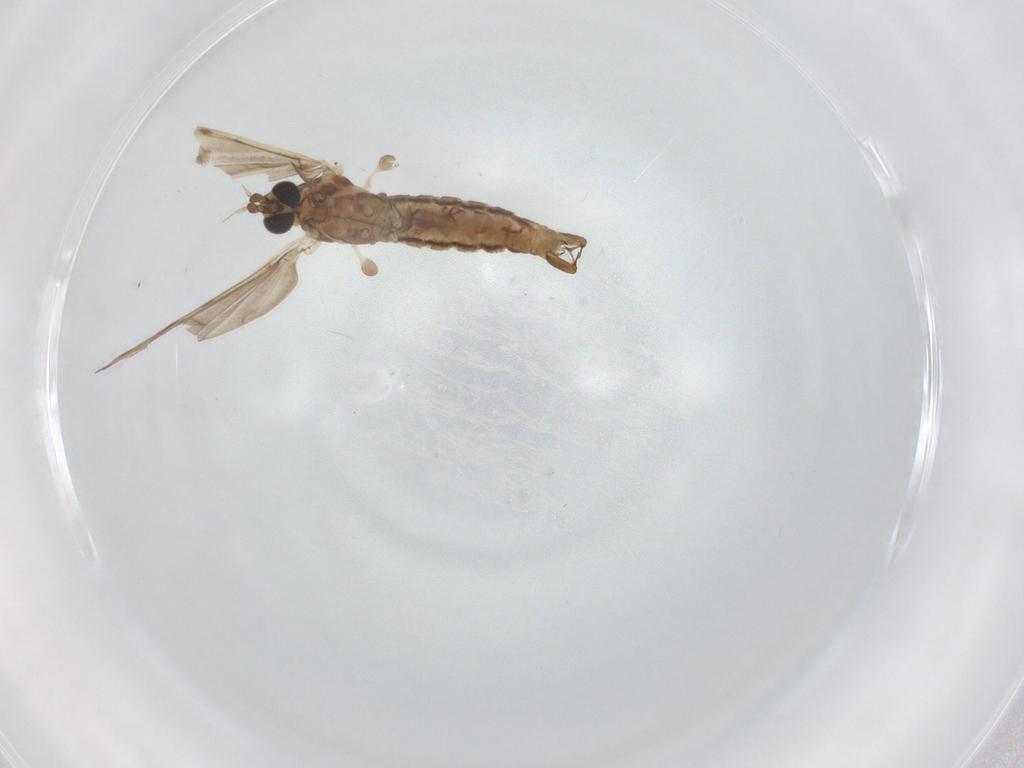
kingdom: Animalia
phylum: Arthropoda
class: Insecta
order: Diptera
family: Limoniidae
